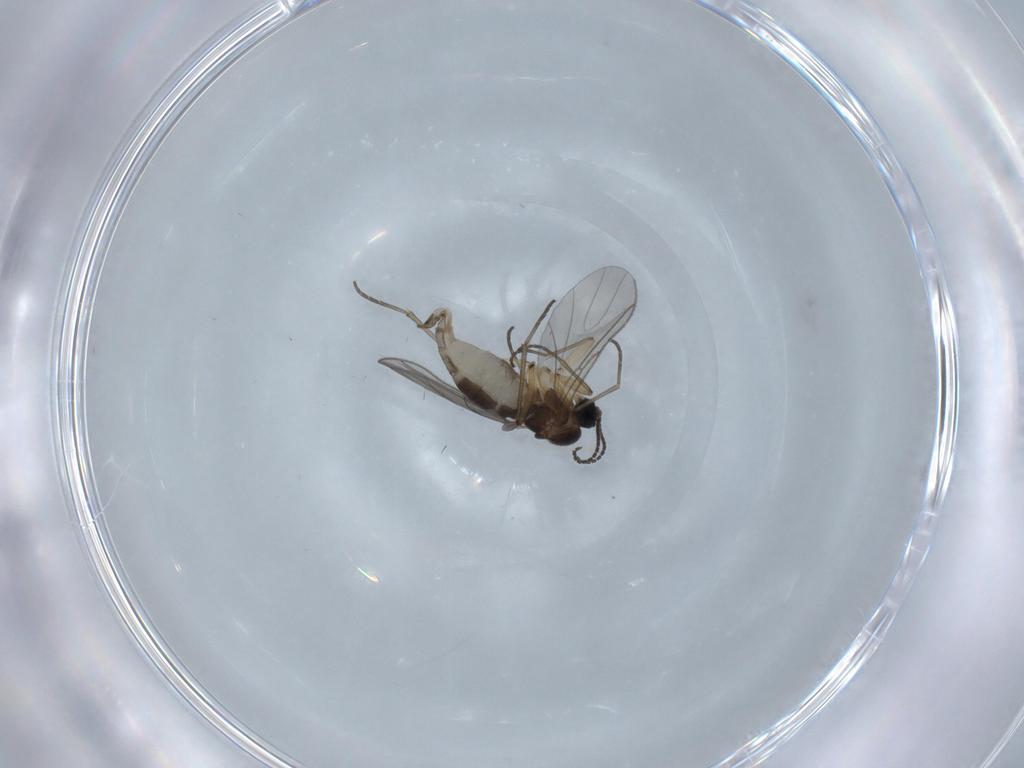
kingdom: Animalia
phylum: Arthropoda
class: Insecta
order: Diptera
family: Sciaridae
